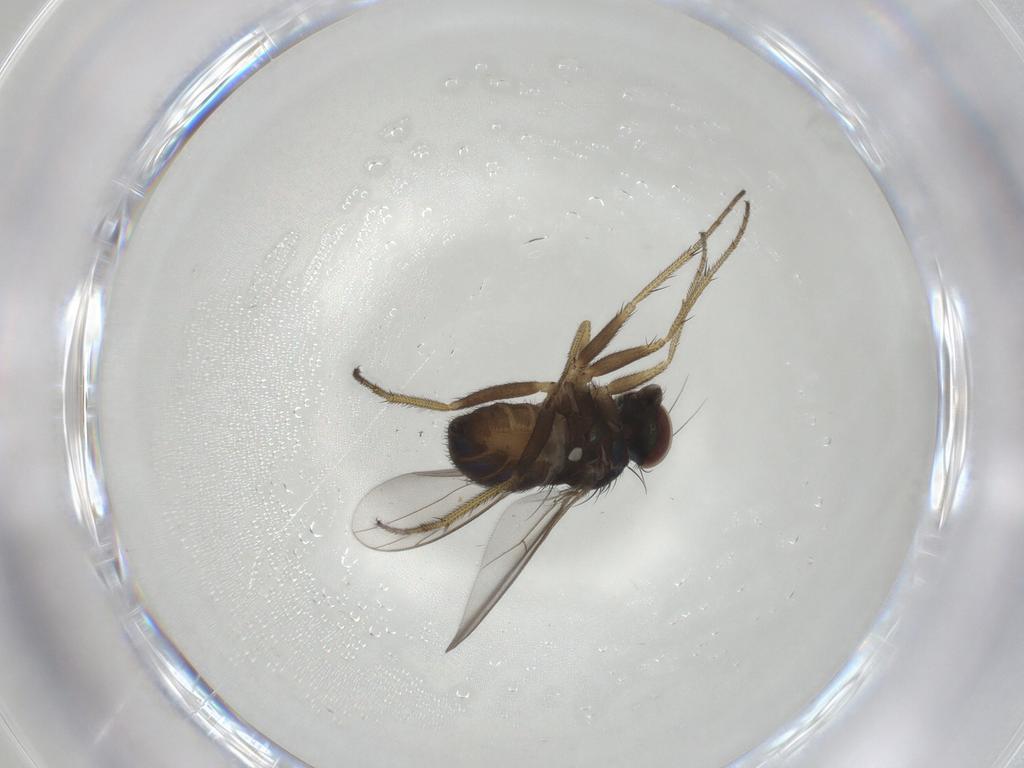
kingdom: Animalia
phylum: Arthropoda
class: Insecta
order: Diptera
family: Dolichopodidae
